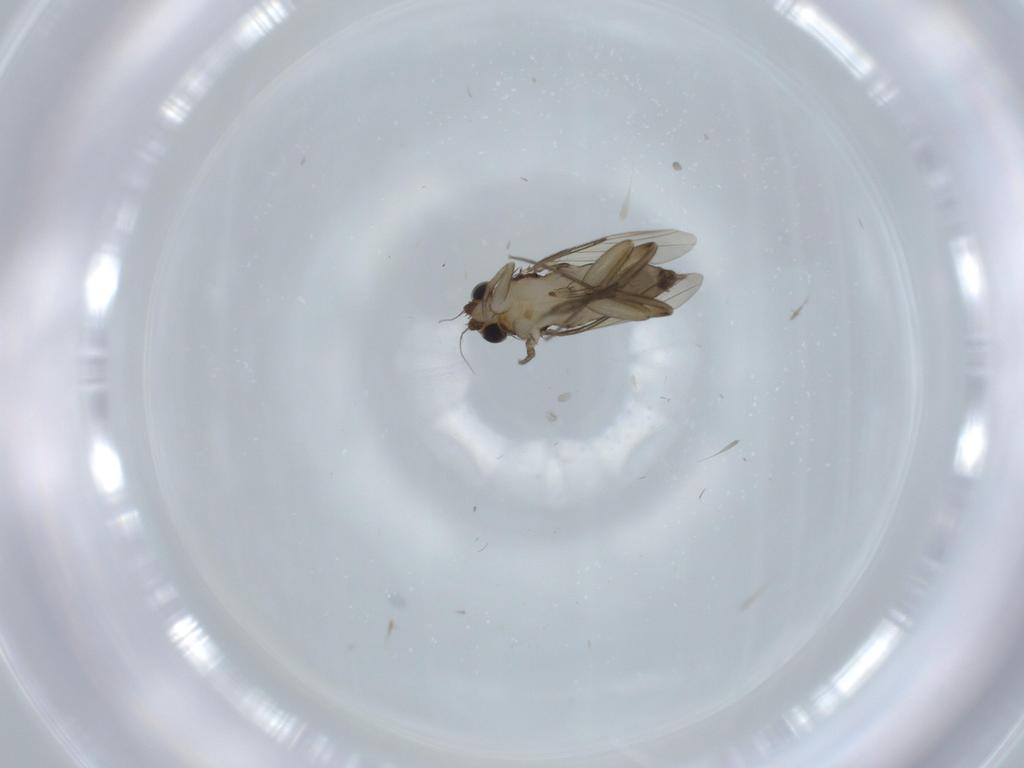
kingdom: Animalia
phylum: Arthropoda
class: Insecta
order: Diptera
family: Phoridae
